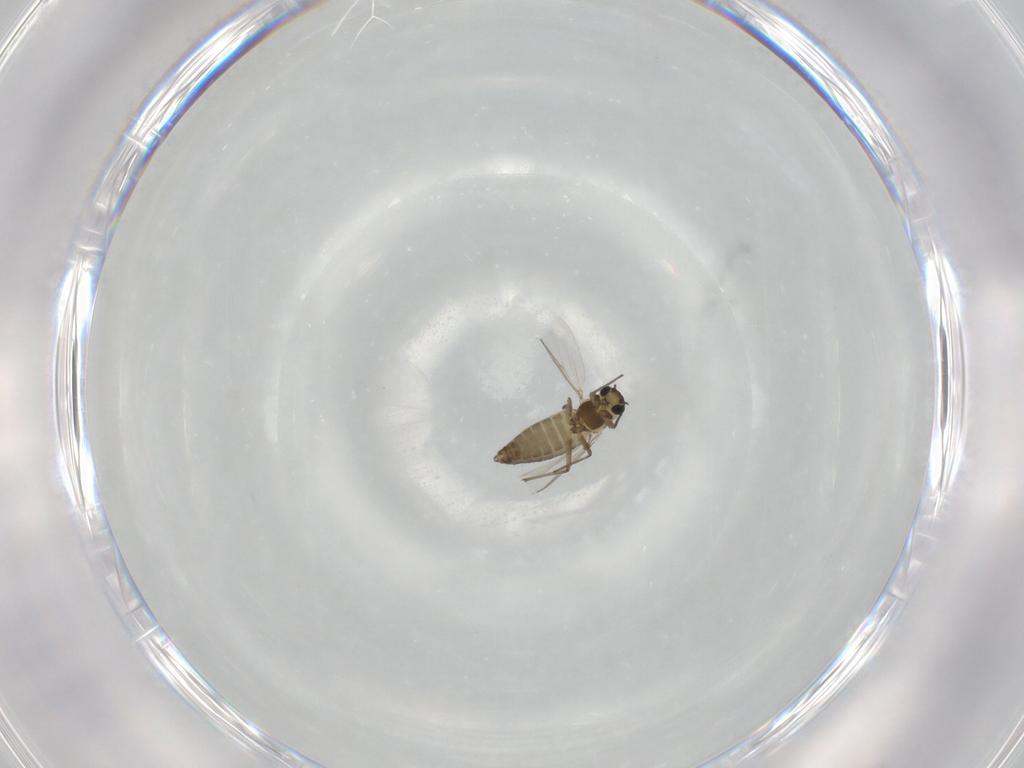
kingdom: Animalia
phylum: Arthropoda
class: Insecta
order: Diptera
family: Chironomidae
